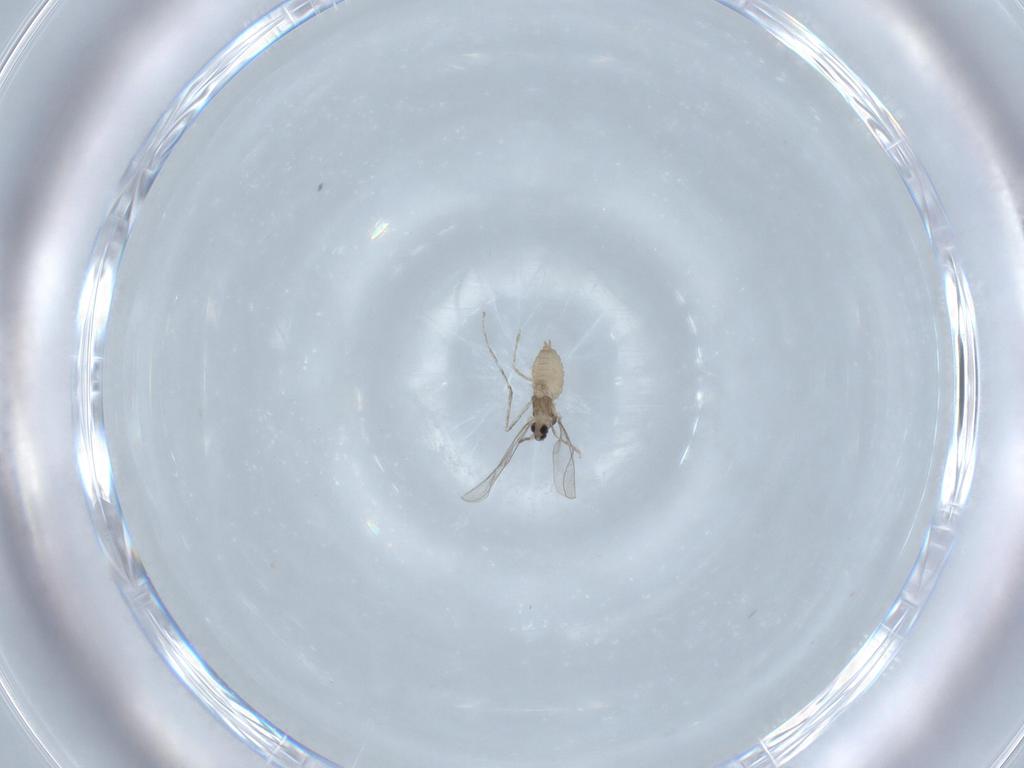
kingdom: Animalia
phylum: Arthropoda
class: Insecta
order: Diptera
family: Cecidomyiidae
